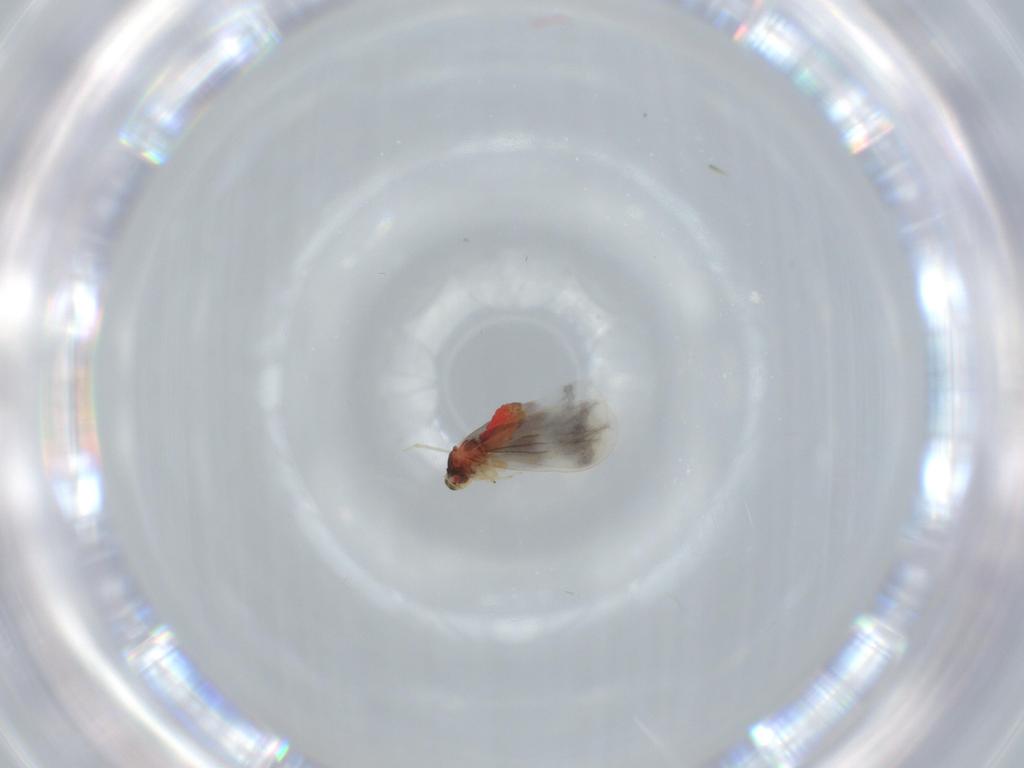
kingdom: Animalia
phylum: Arthropoda
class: Insecta
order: Hemiptera
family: Aleyrodidae
